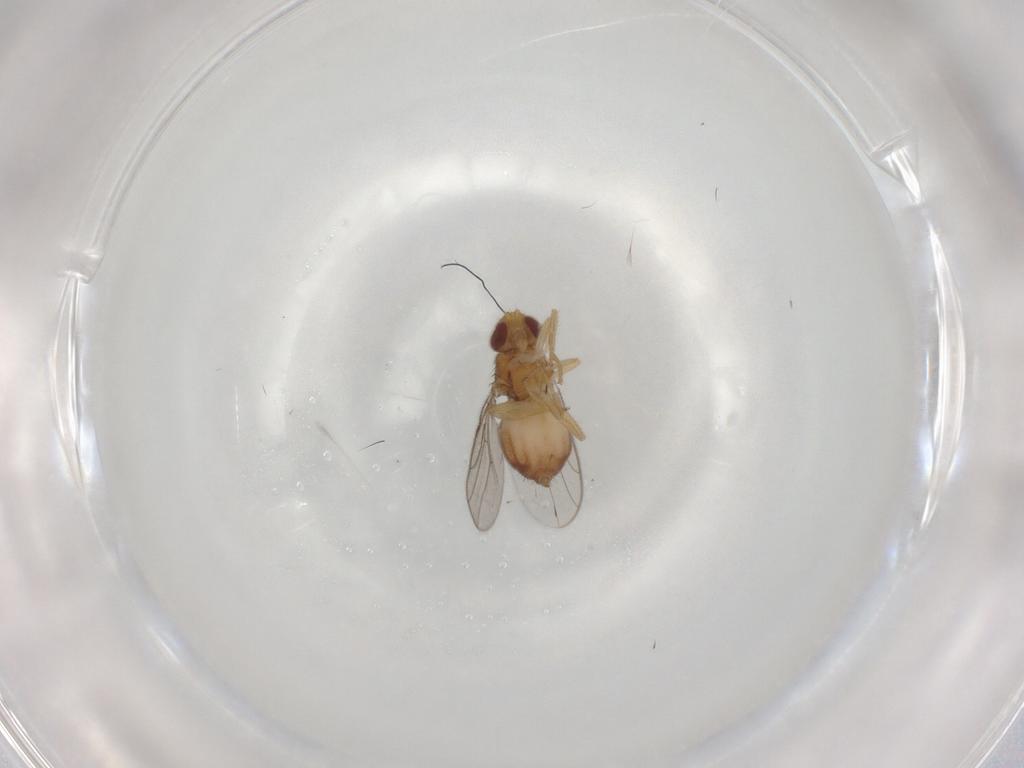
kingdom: Animalia
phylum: Arthropoda
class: Insecta
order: Diptera
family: Chloropidae
